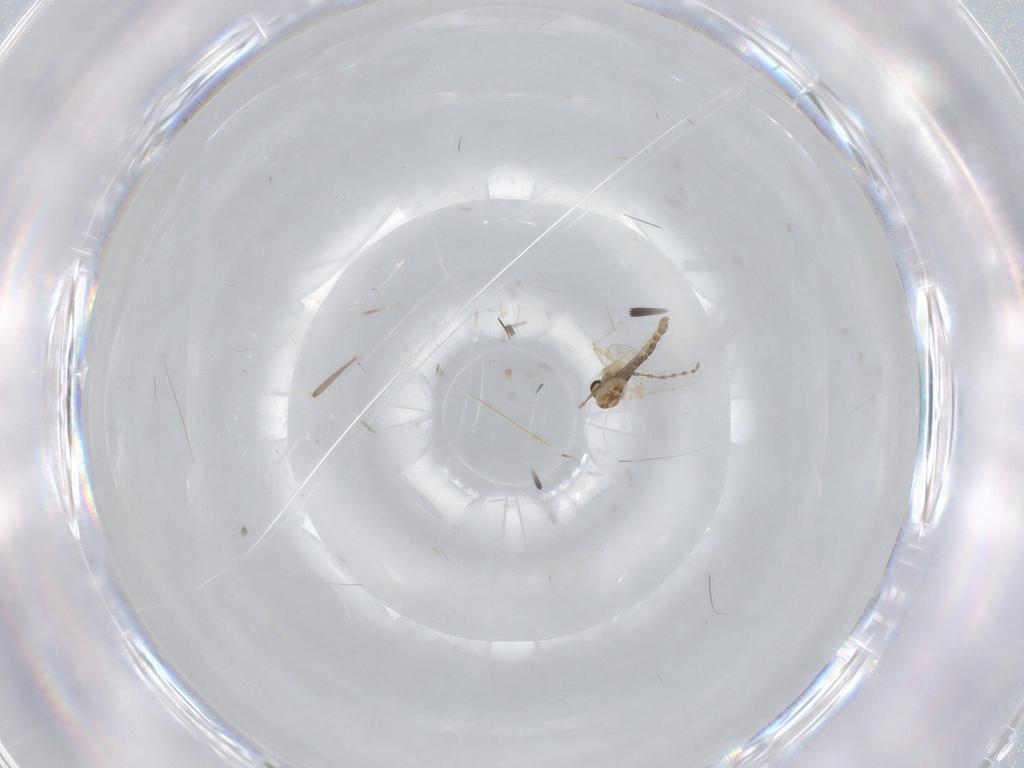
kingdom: Animalia
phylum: Arthropoda
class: Insecta
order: Diptera
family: Chironomidae
